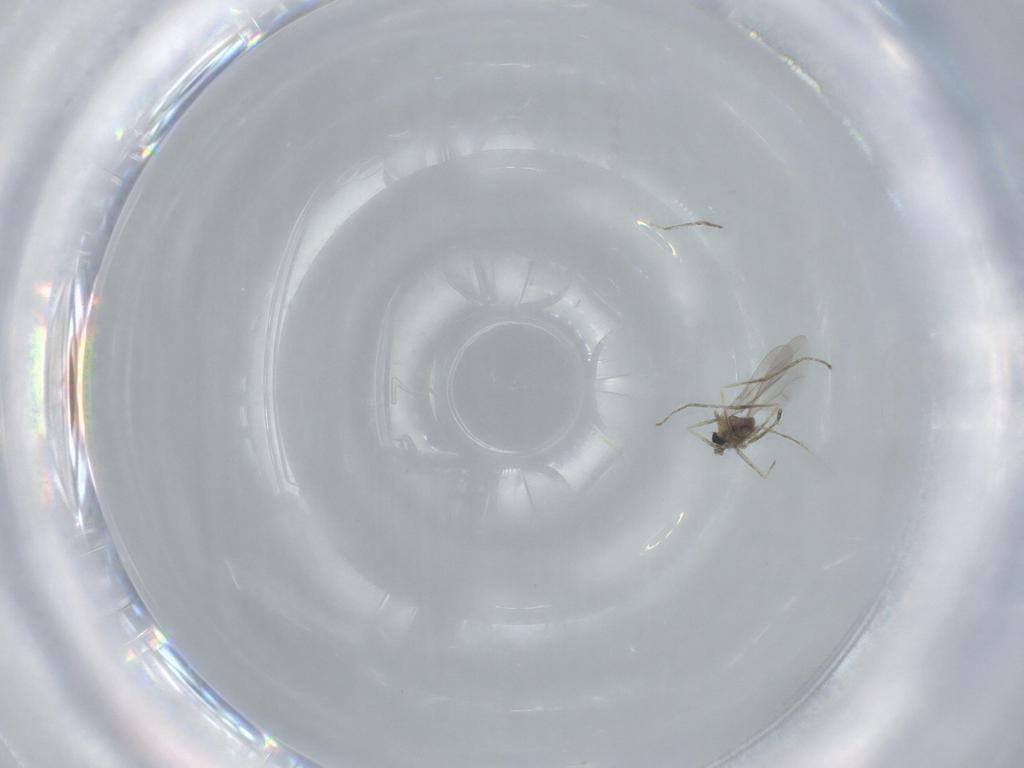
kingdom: Animalia
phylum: Arthropoda
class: Insecta
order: Diptera
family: Cecidomyiidae
